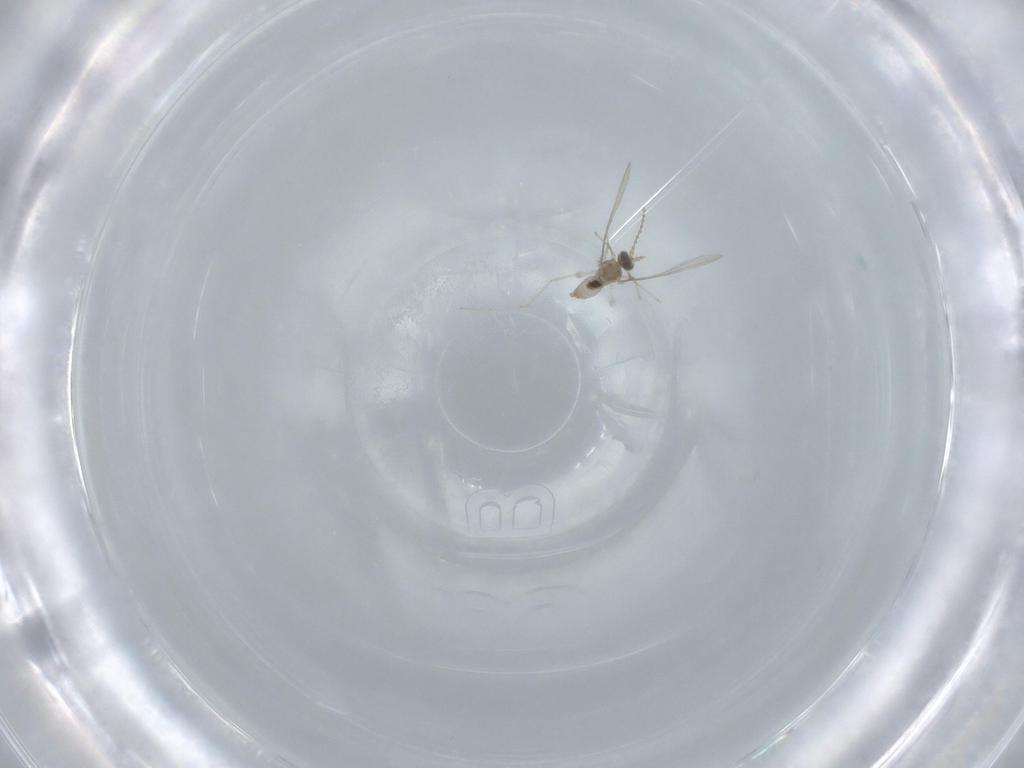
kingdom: Animalia
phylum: Arthropoda
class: Insecta
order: Diptera
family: Cecidomyiidae
